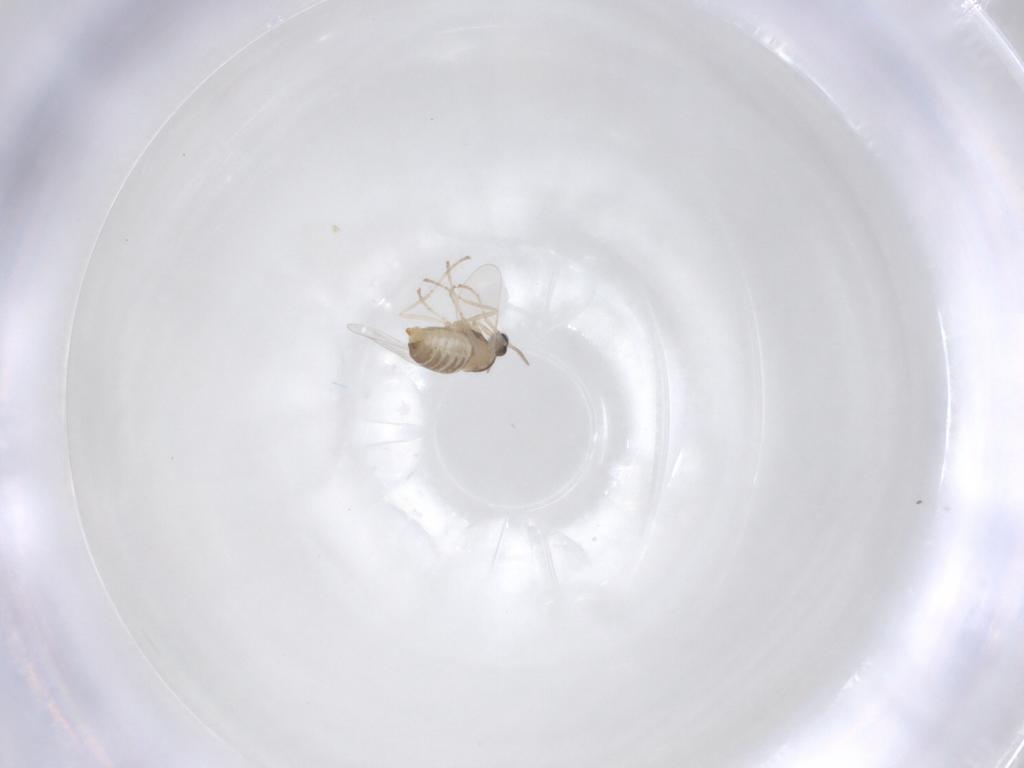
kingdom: Animalia
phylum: Arthropoda
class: Insecta
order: Diptera
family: Cecidomyiidae
